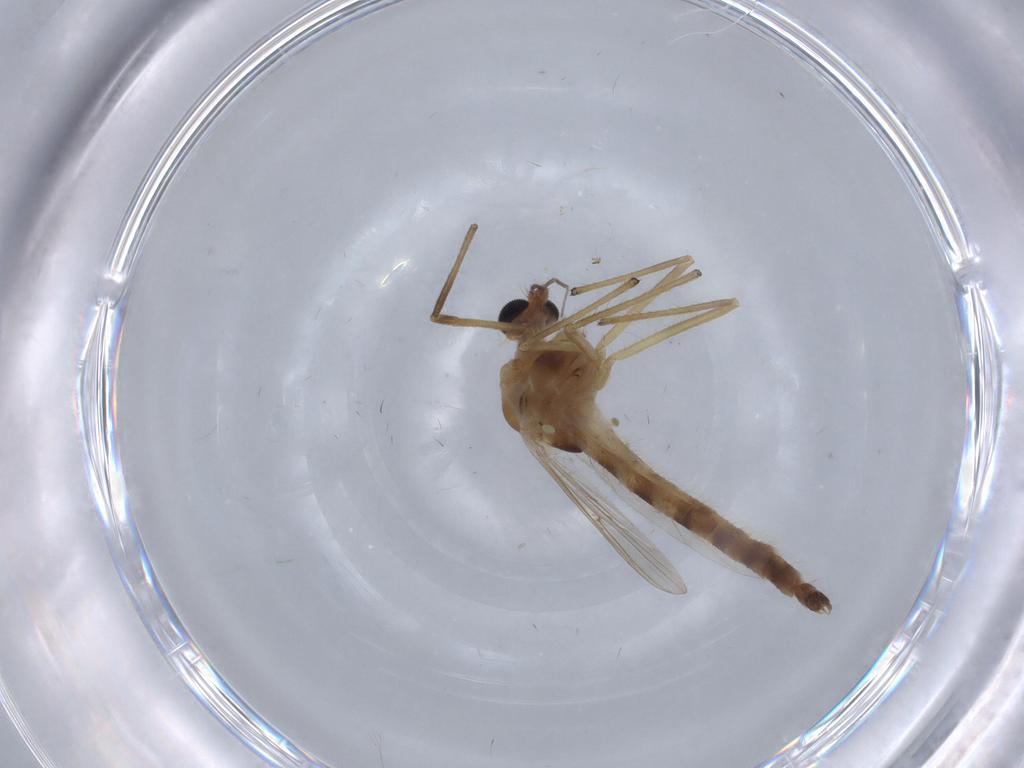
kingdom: Animalia
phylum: Arthropoda
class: Insecta
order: Diptera
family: Chironomidae
